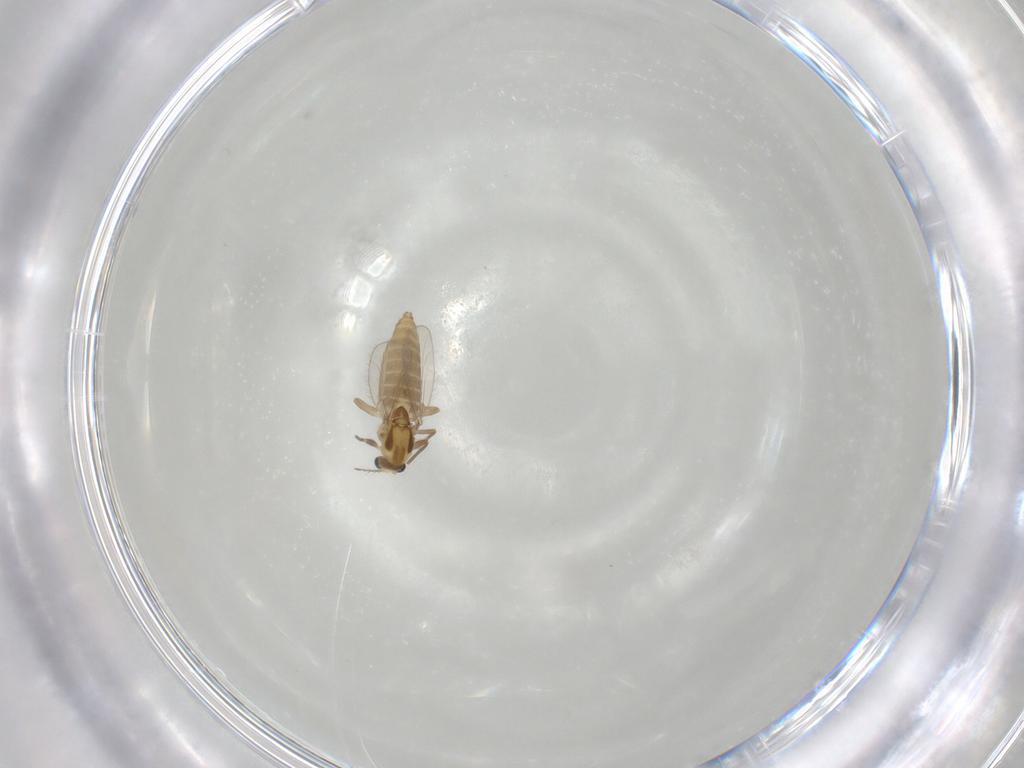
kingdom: Animalia
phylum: Arthropoda
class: Insecta
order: Diptera
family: Chironomidae
